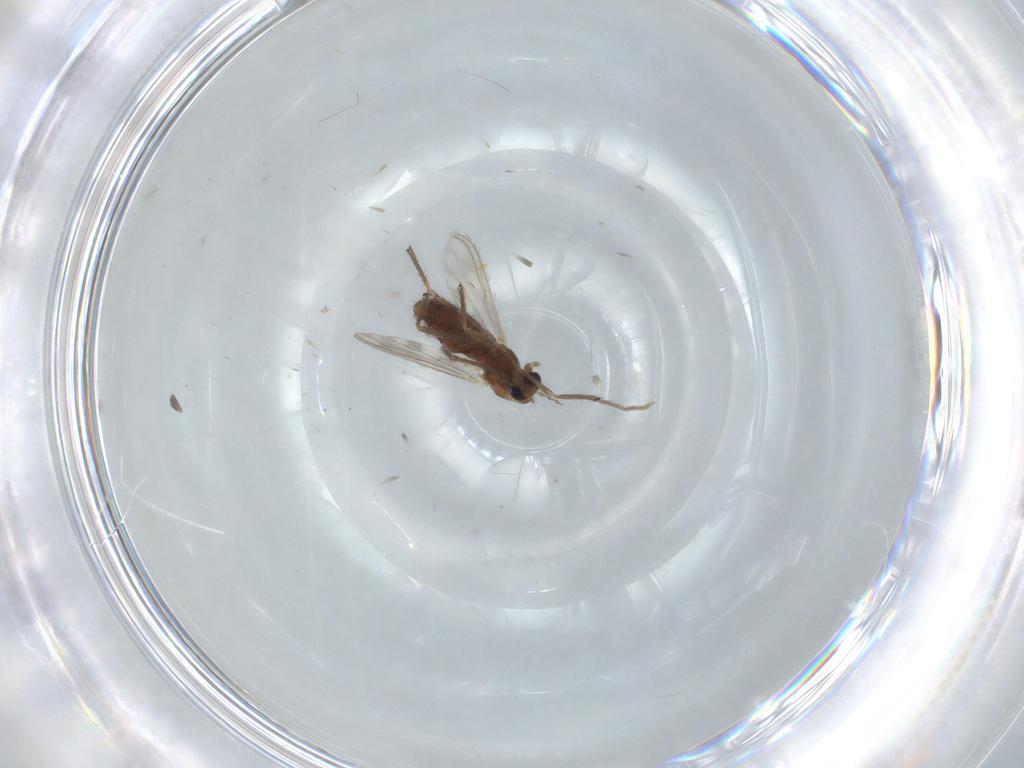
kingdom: Animalia
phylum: Arthropoda
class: Insecta
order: Diptera
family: Chironomidae
